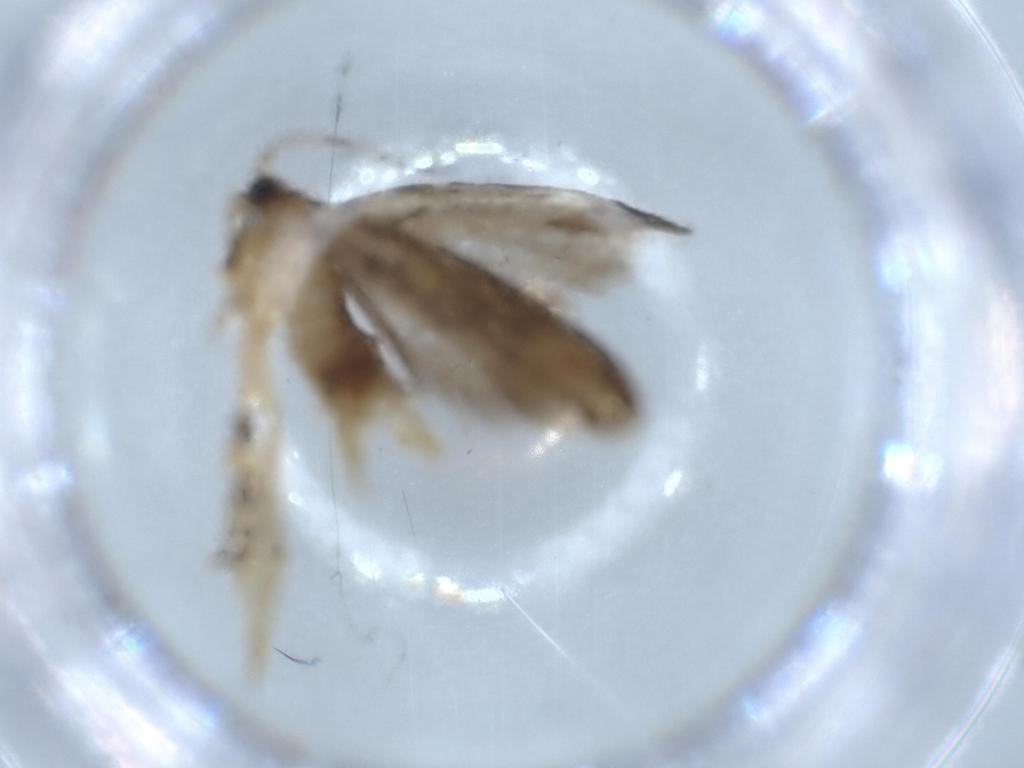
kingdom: Animalia
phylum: Arthropoda
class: Insecta
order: Lepidoptera
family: Tineidae
